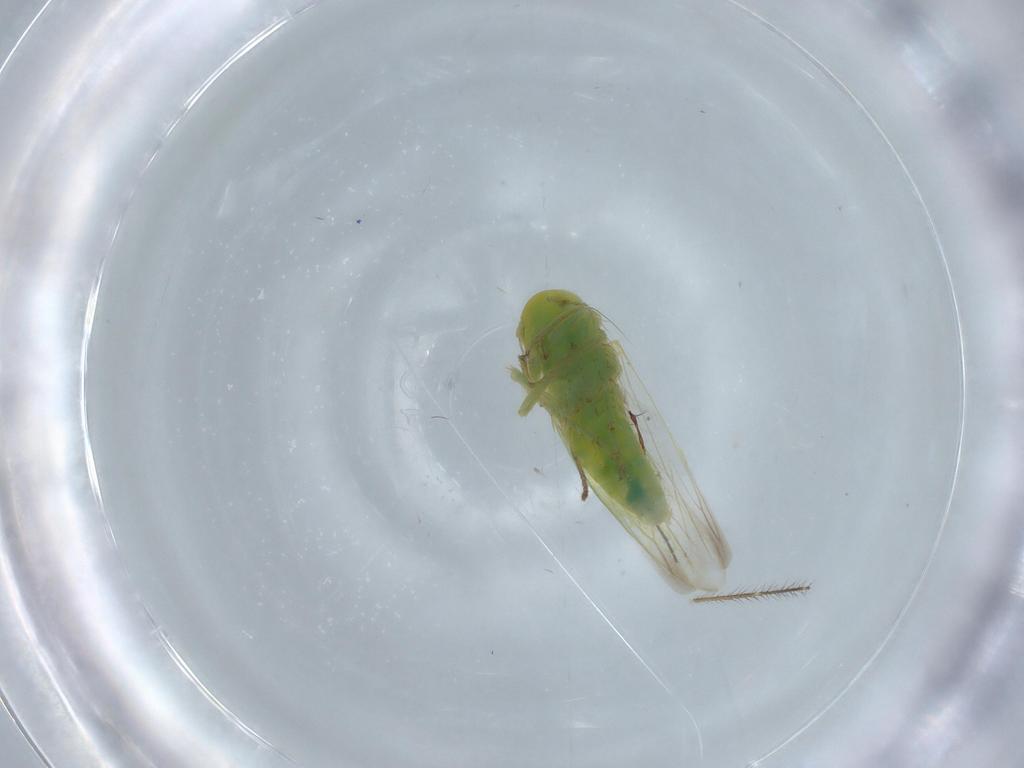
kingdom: Animalia
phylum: Arthropoda
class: Insecta
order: Hemiptera
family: Cicadellidae
